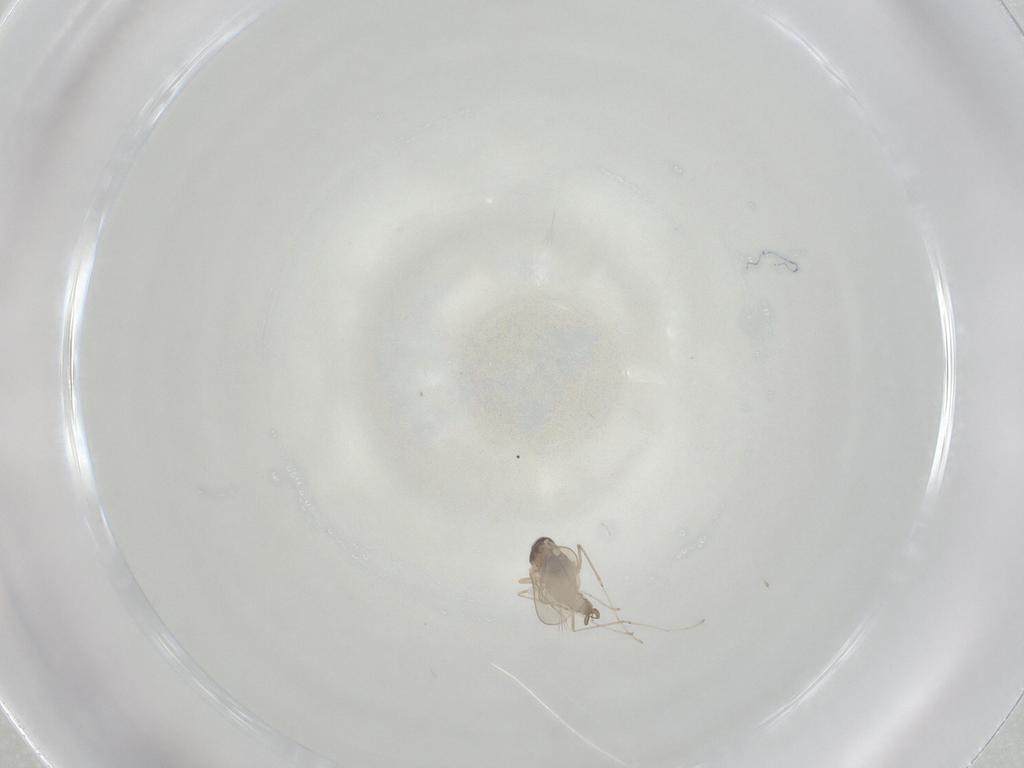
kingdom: Animalia
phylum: Arthropoda
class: Insecta
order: Diptera
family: Cecidomyiidae
